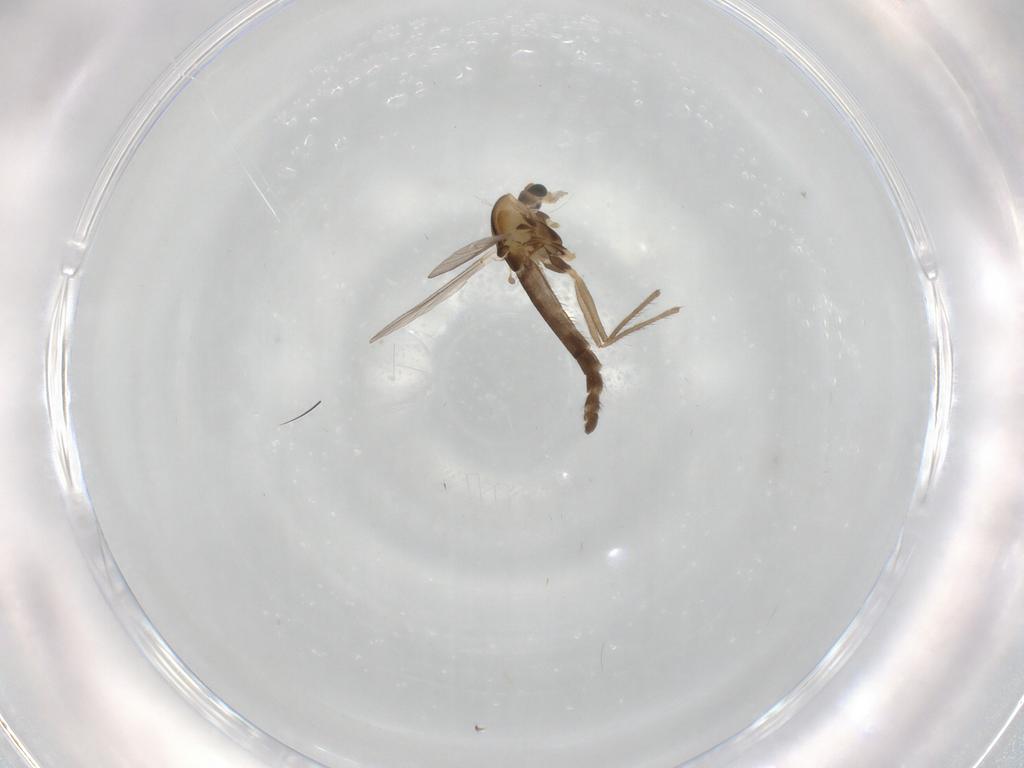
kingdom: Animalia
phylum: Arthropoda
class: Insecta
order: Diptera
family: Chironomidae
